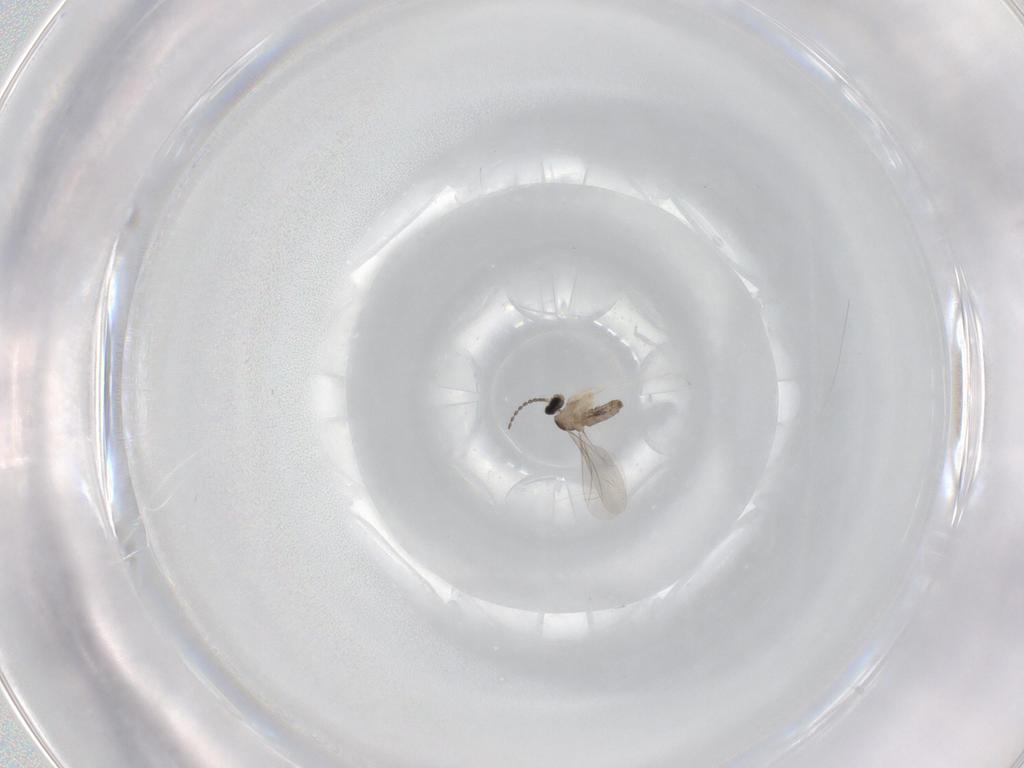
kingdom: Animalia
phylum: Arthropoda
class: Insecta
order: Diptera
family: Cecidomyiidae
